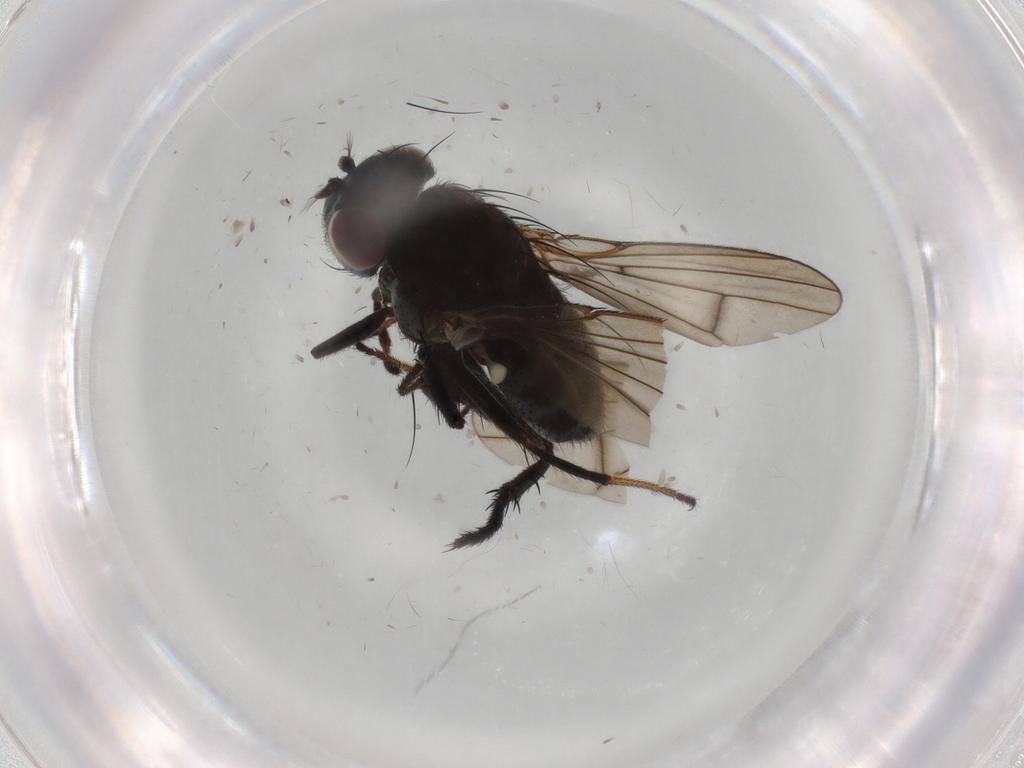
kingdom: Animalia
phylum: Arthropoda
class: Insecta
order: Diptera
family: Ephydridae
